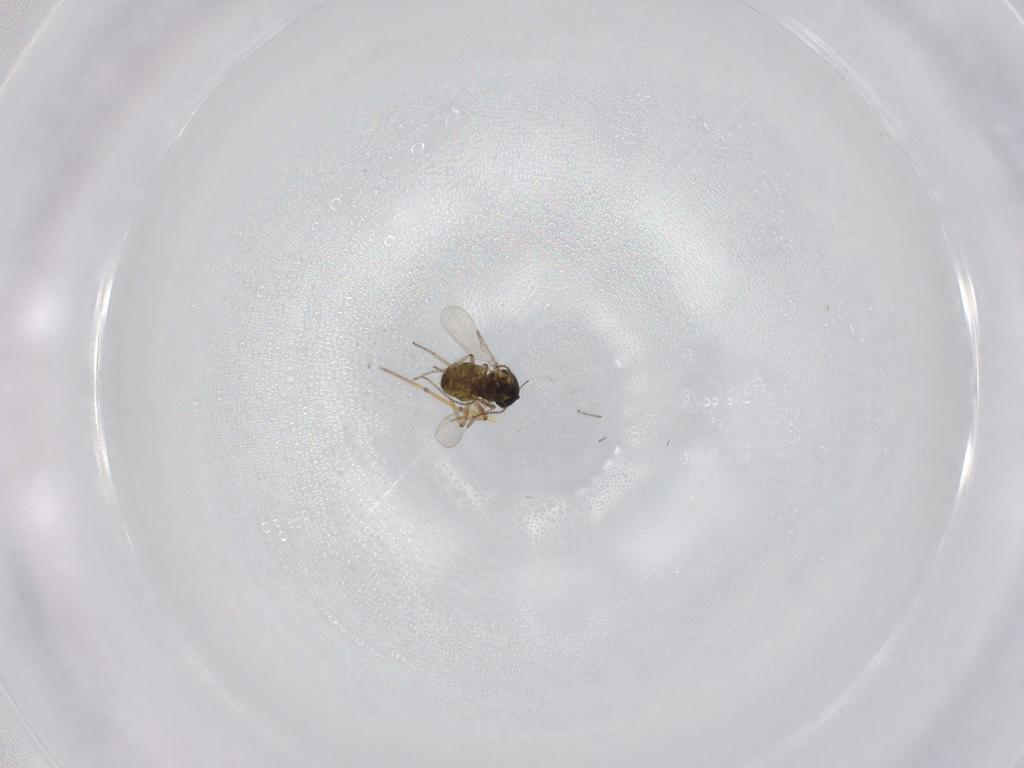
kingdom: Animalia
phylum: Arthropoda
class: Insecta
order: Diptera
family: Ceratopogonidae
